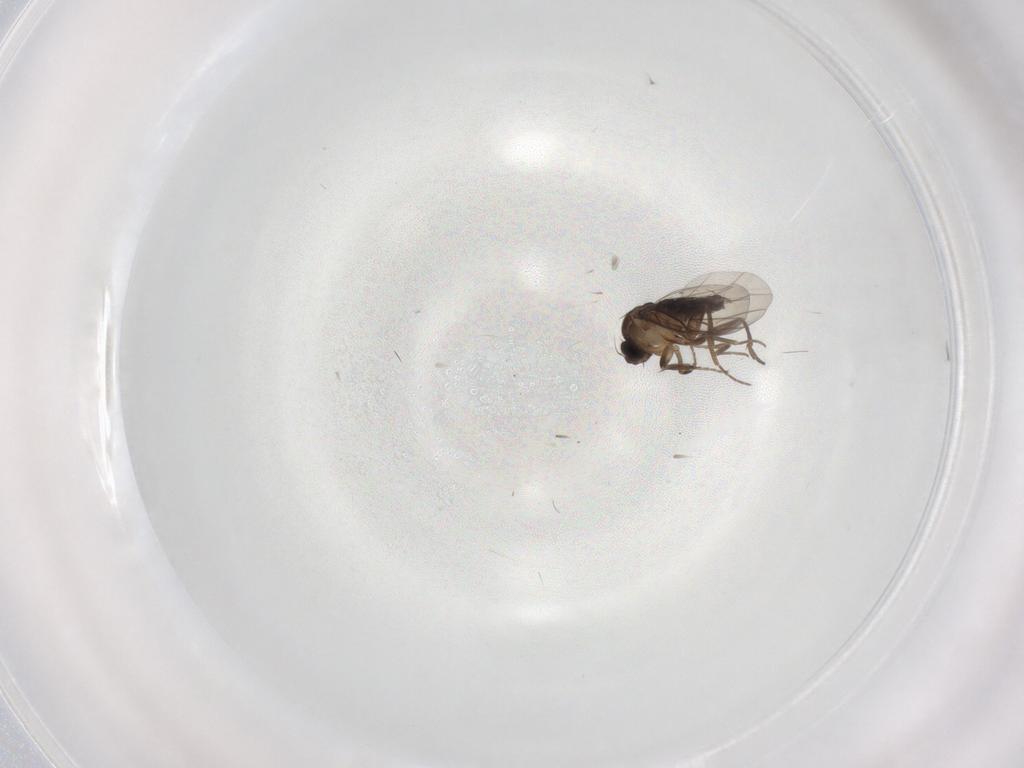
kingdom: Animalia
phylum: Arthropoda
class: Insecta
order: Diptera
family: Phoridae
